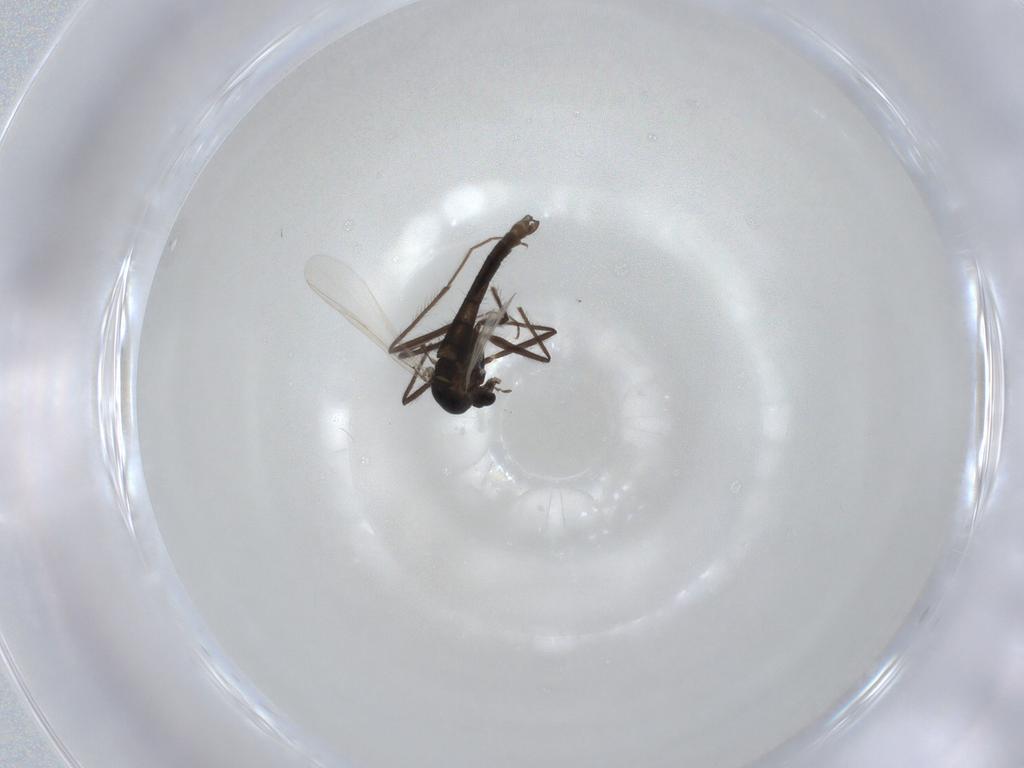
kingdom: Animalia
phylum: Arthropoda
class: Insecta
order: Diptera
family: Chironomidae
